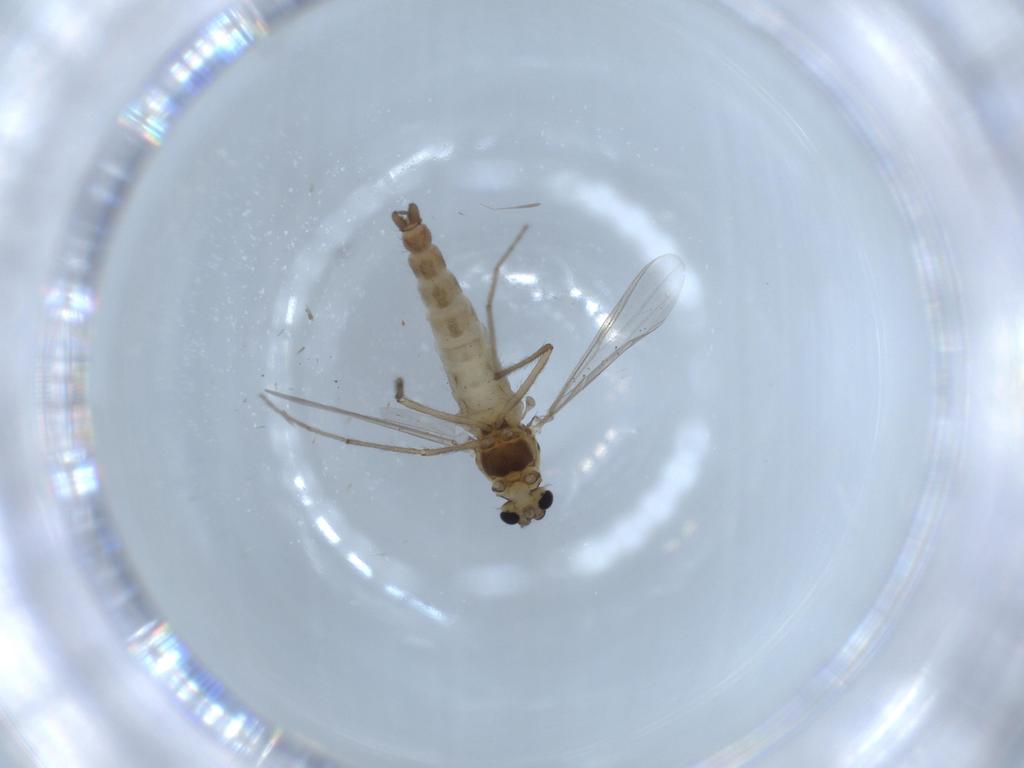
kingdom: Animalia
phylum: Arthropoda
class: Insecta
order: Diptera
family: Chironomidae
